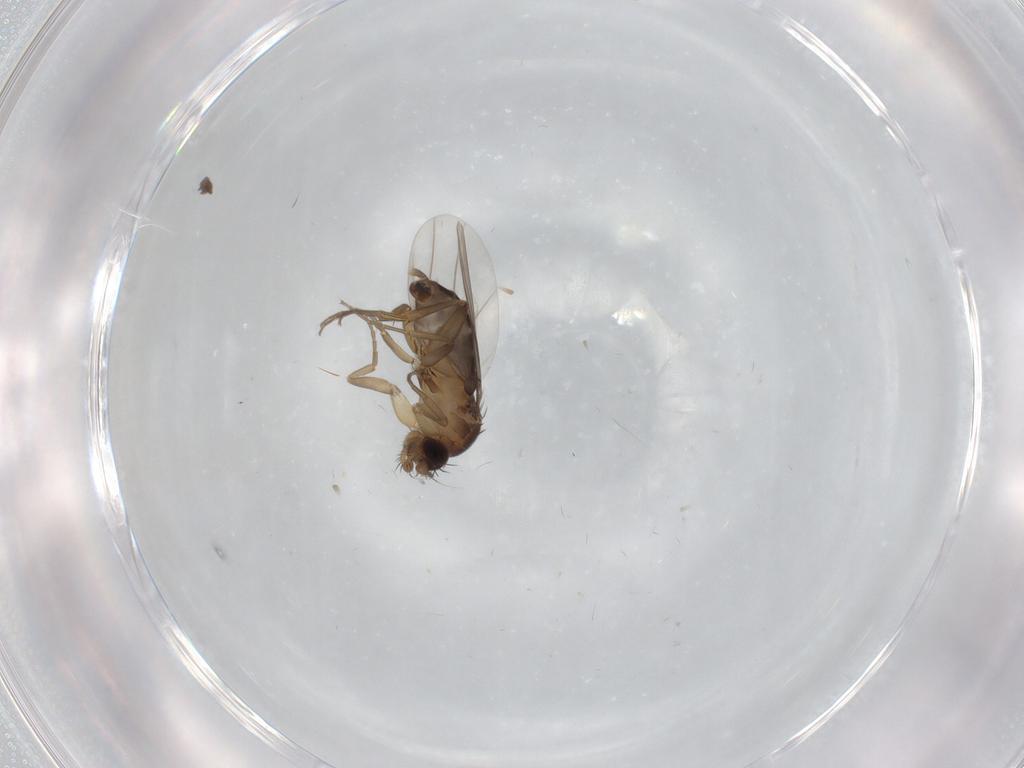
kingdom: Animalia
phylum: Arthropoda
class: Insecta
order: Diptera
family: Phoridae
